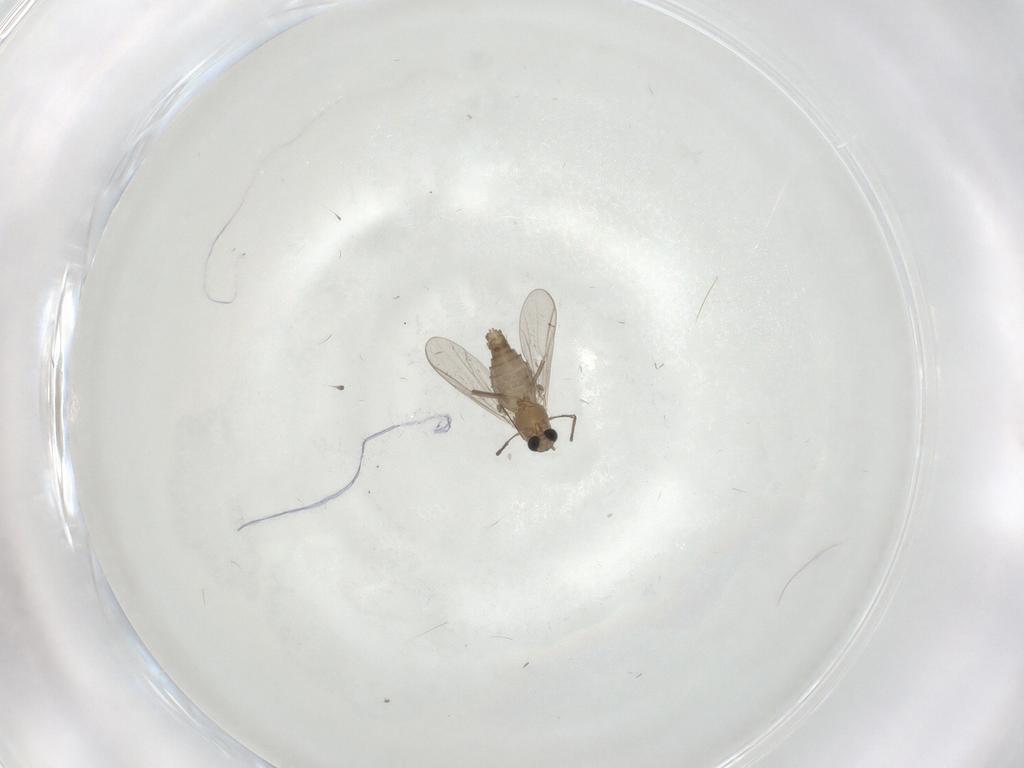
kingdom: Animalia
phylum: Arthropoda
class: Insecta
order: Diptera
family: Chironomidae
